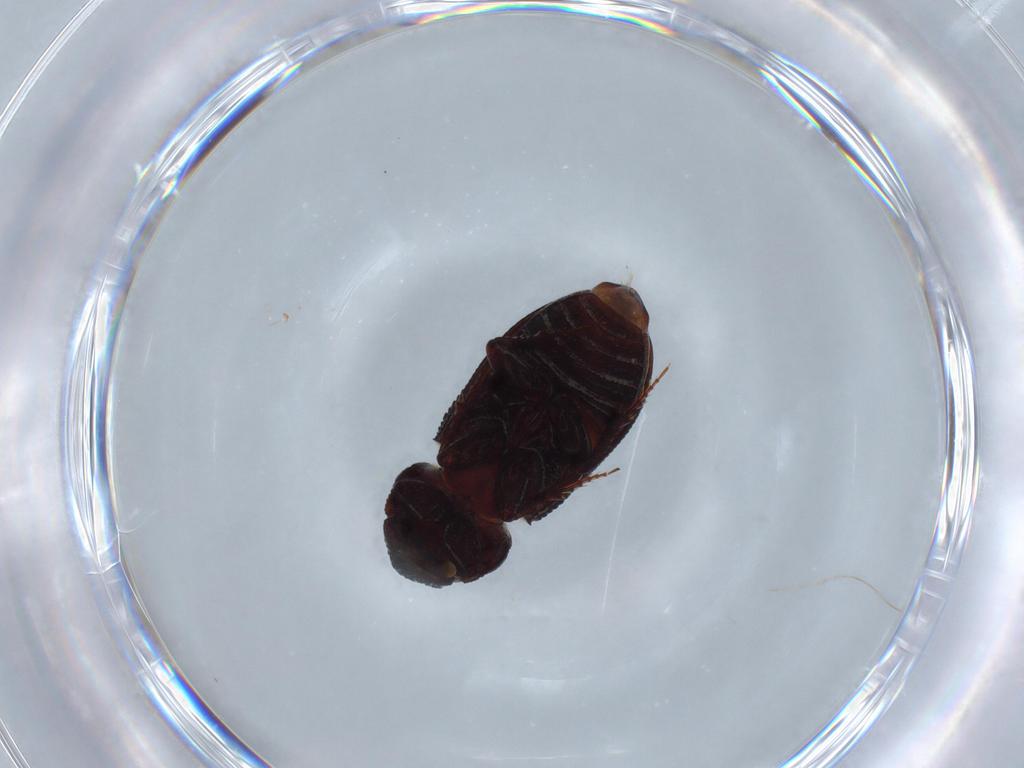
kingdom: Animalia
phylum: Arthropoda
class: Insecta
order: Coleoptera
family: Scarabaeidae
